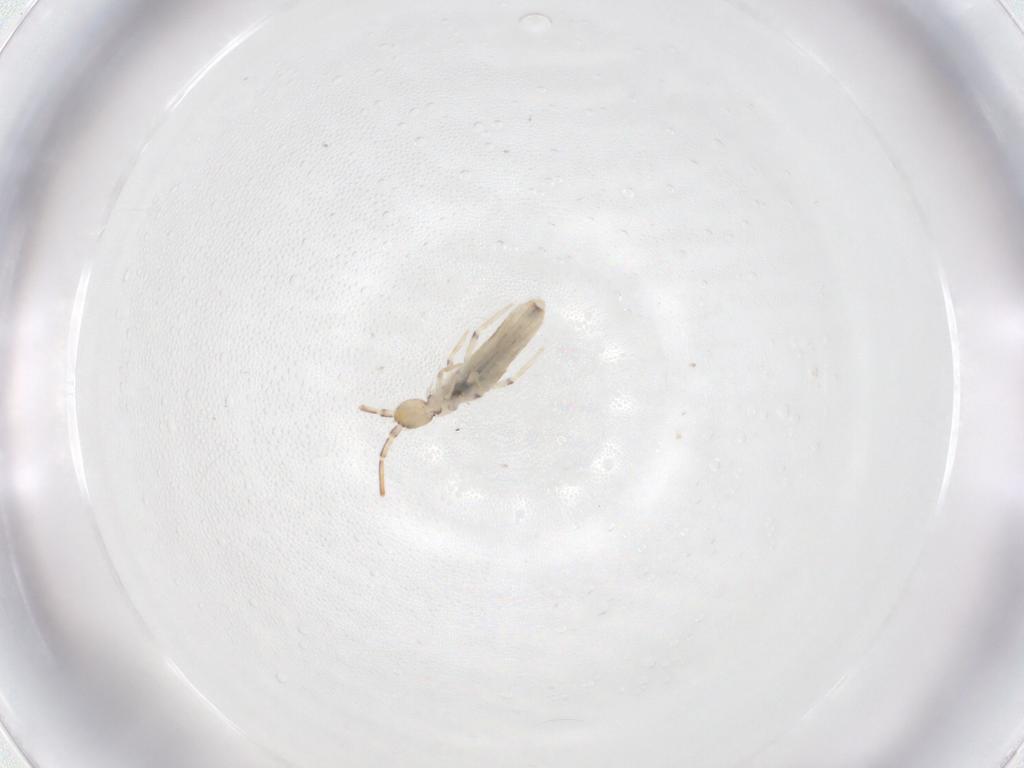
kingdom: Animalia
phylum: Arthropoda
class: Collembola
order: Entomobryomorpha
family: Entomobryidae
